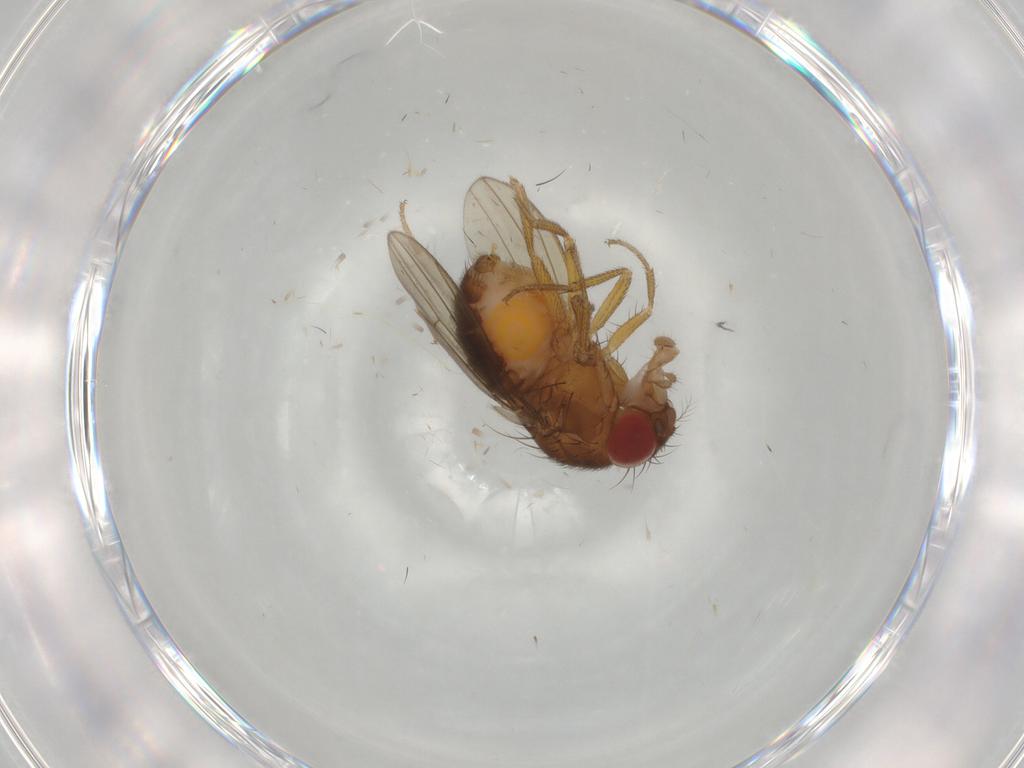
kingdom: Animalia
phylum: Arthropoda
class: Insecta
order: Diptera
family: Drosophilidae
